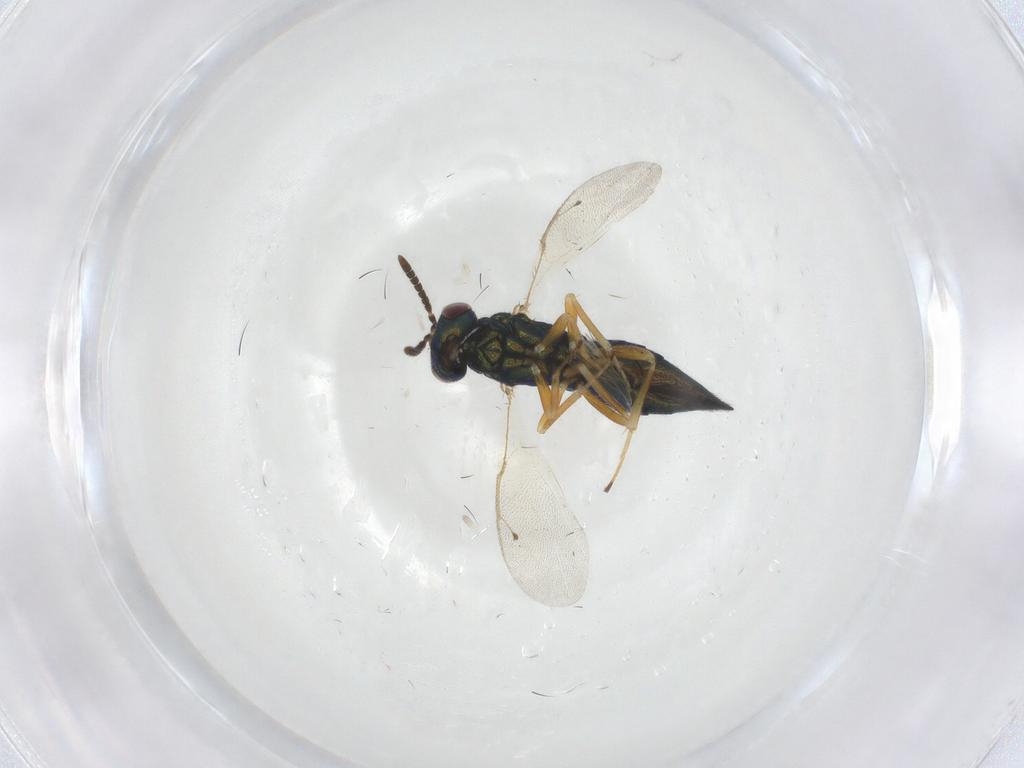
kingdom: Animalia
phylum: Arthropoda
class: Insecta
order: Hymenoptera
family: Pteromalidae
